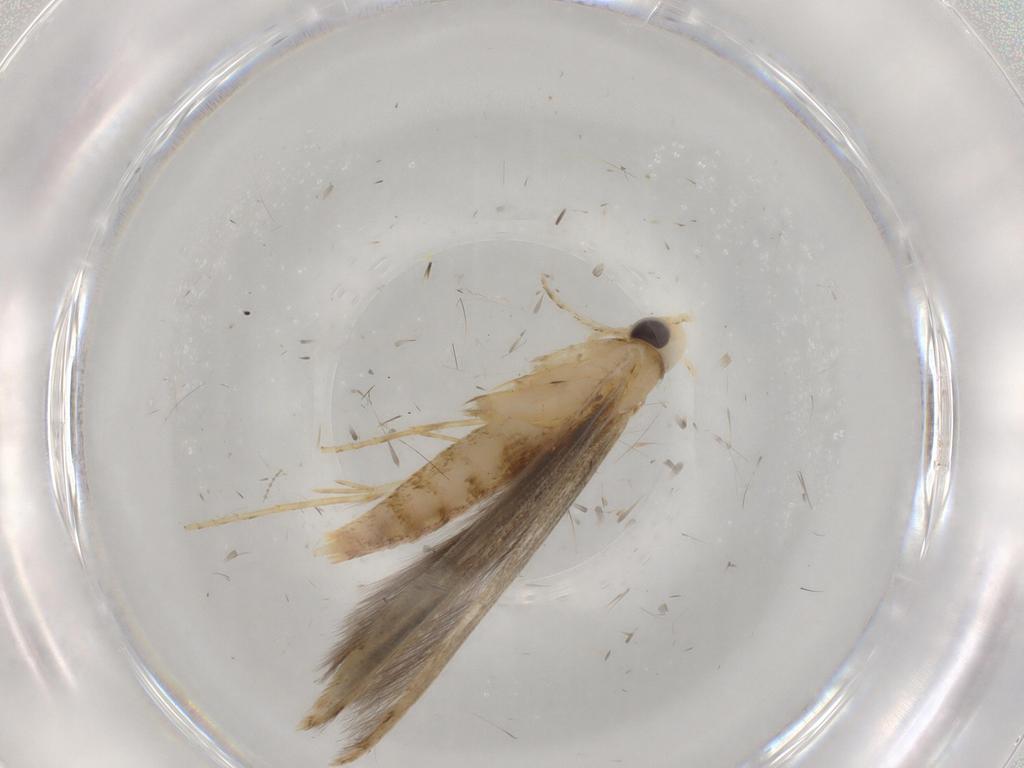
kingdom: Animalia
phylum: Arthropoda
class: Insecta
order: Lepidoptera
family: Batrachedridae
